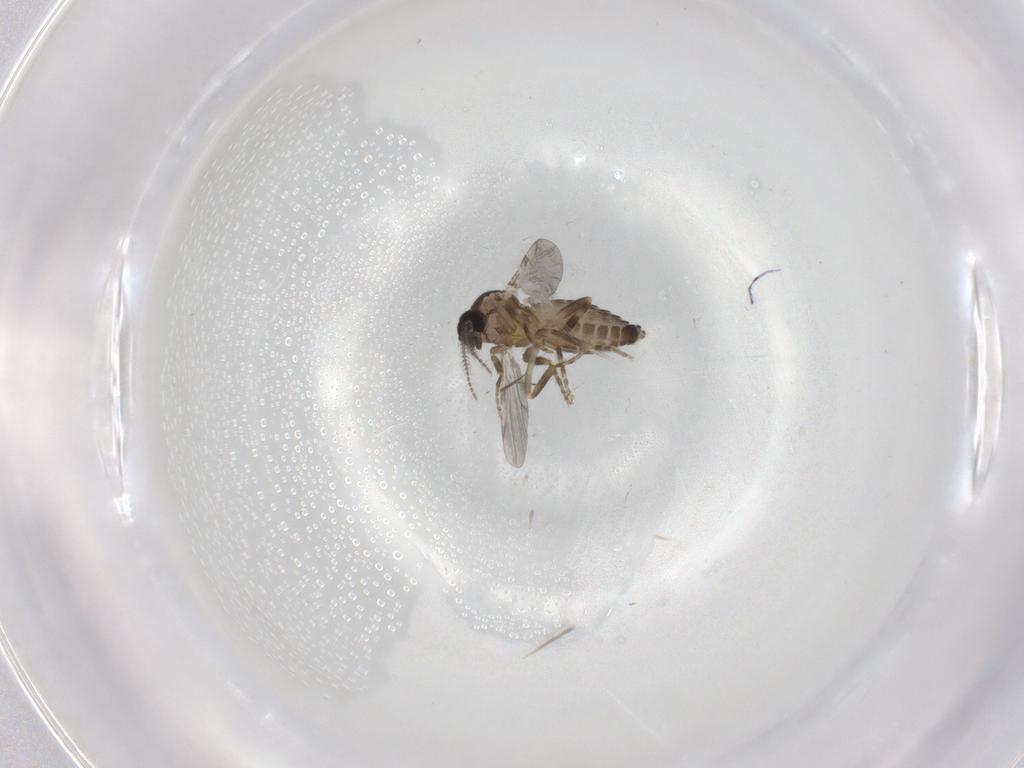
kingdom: Animalia
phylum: Arthropoda
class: Insecta
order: Diptera
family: Ceratopogonidae
